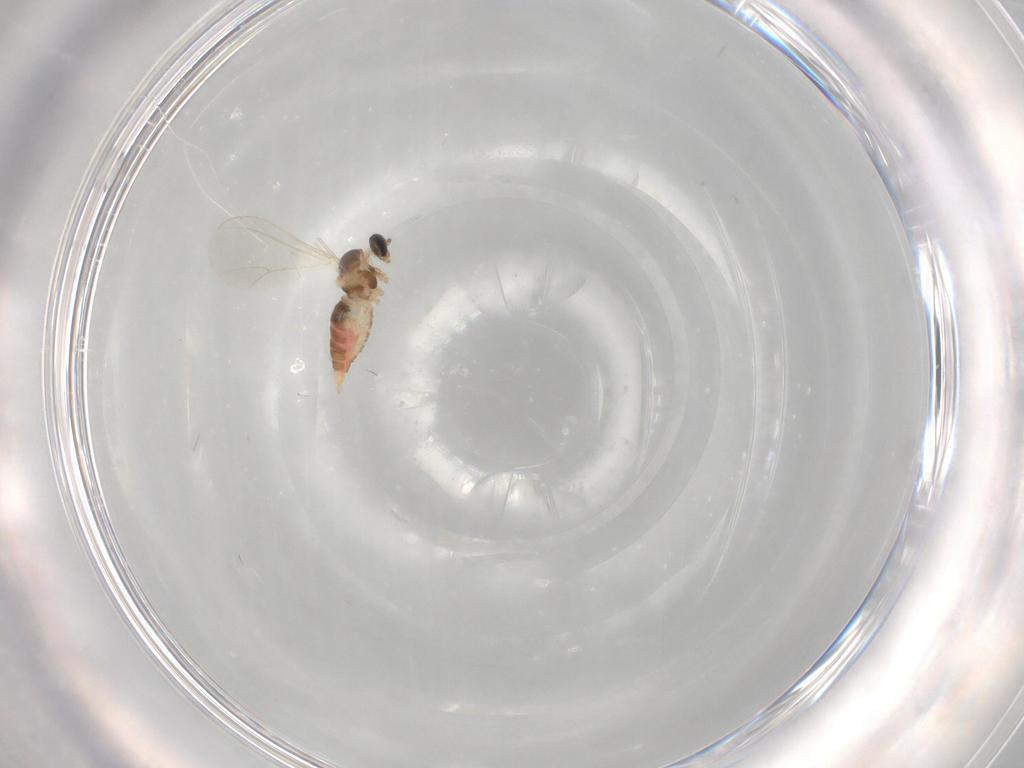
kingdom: Animalia
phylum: Arthropoda
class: Insecta
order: Diptera
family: Cecidomyiidae
